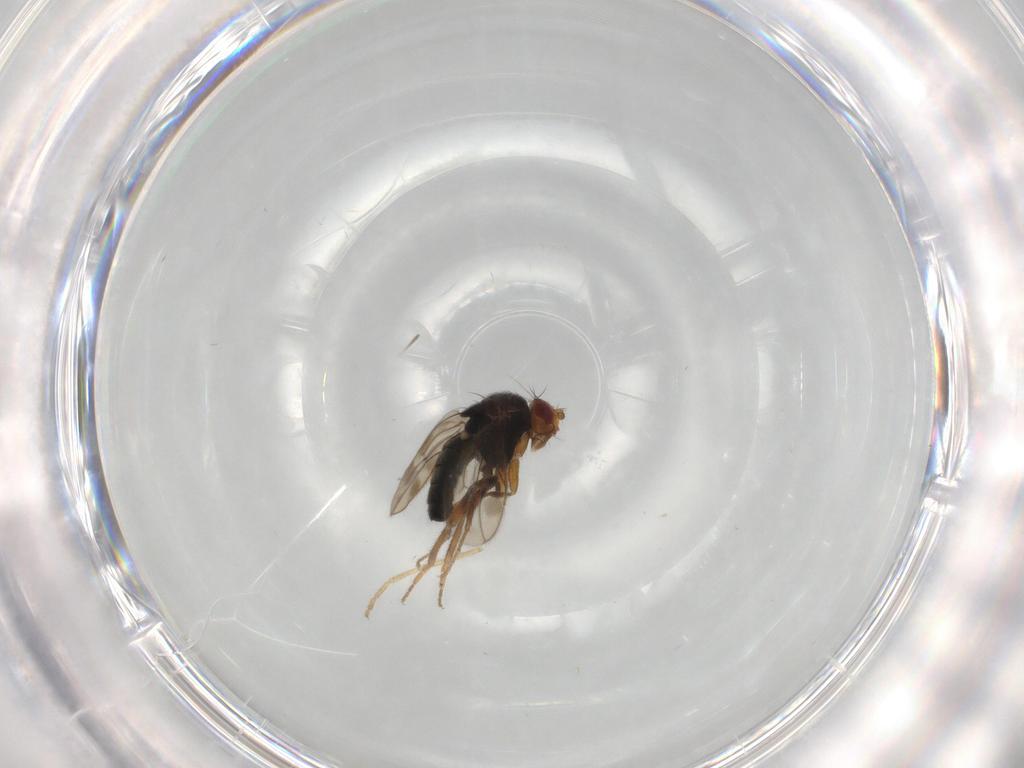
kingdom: Animalia
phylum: Arthropoda
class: Insecta
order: Diptera
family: Sphaeroceridae
